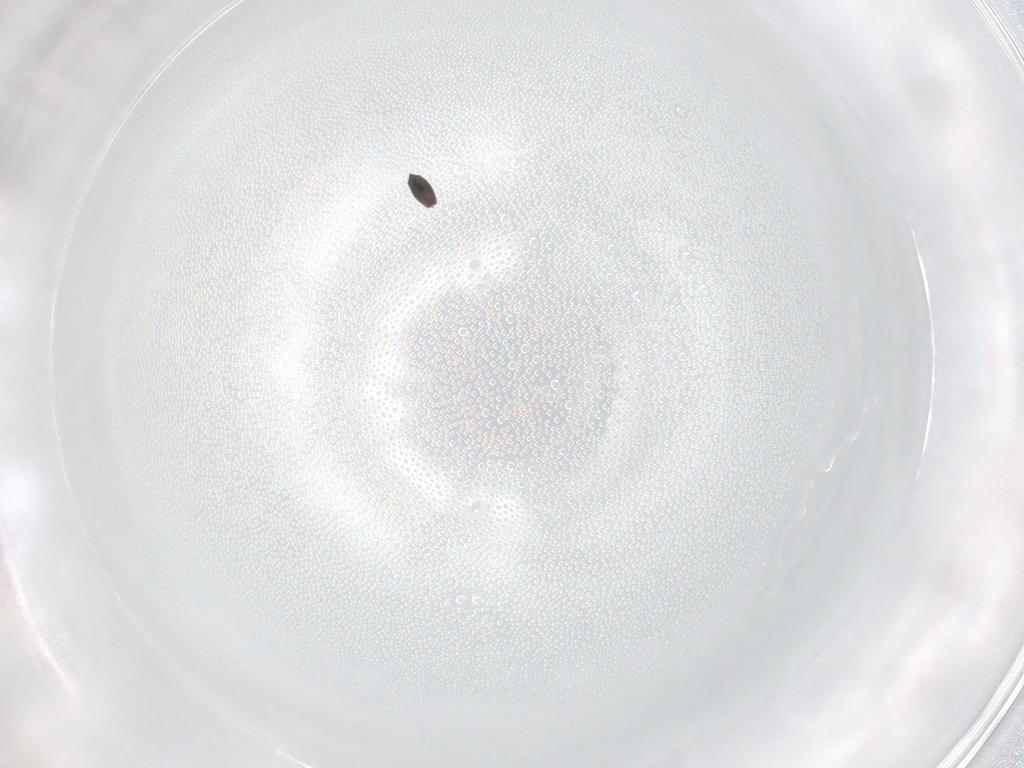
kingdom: Animalia
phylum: Arthropoda
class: Insecta
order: Hymenoptera
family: Scelionidae
